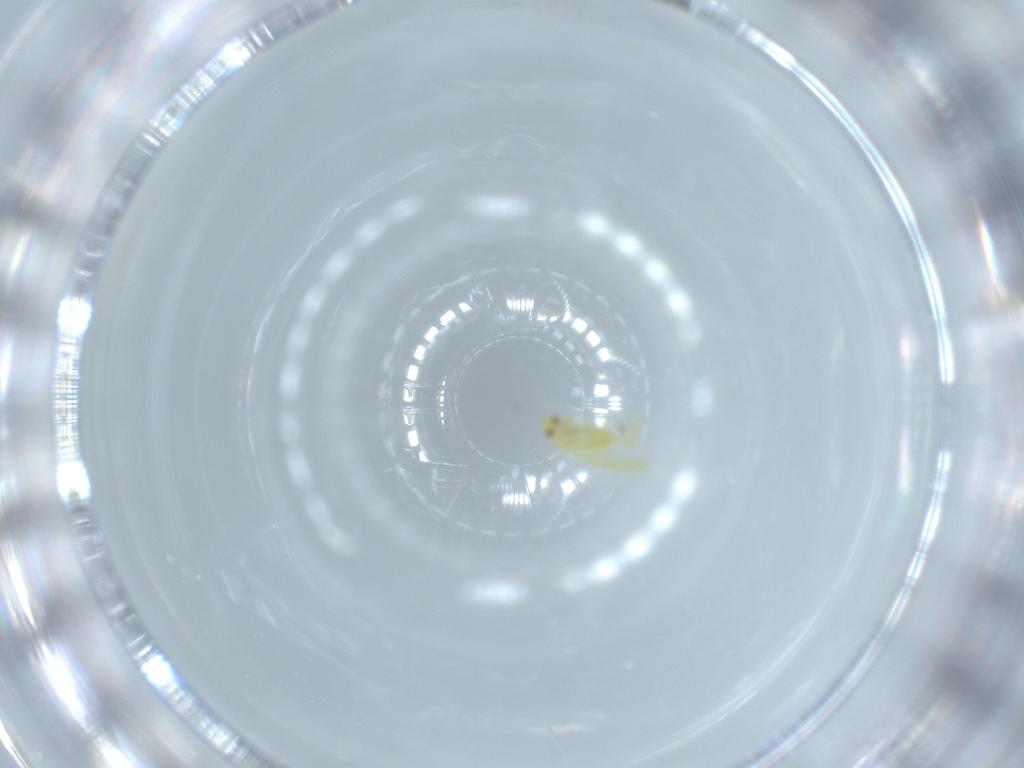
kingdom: Animalia
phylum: Arthropoda
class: Insecta
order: Hemiptera
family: Aleyrodidae
